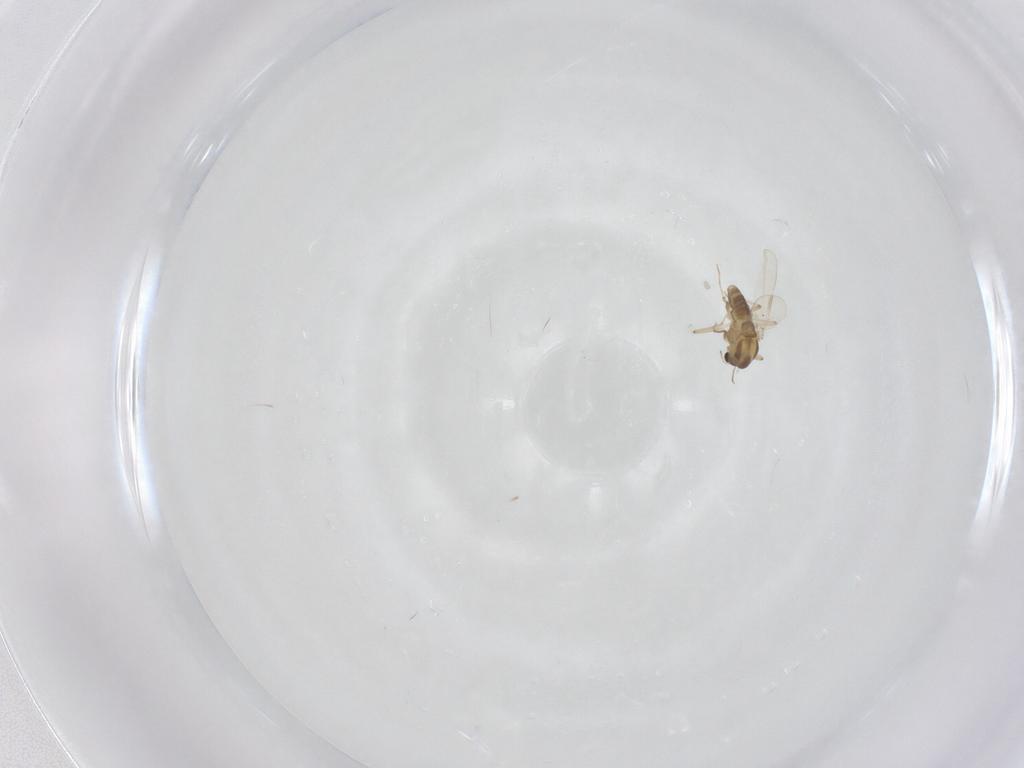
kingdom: Animalia
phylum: Arthropoda
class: Insecta
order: Diptera
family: Chironomidae
